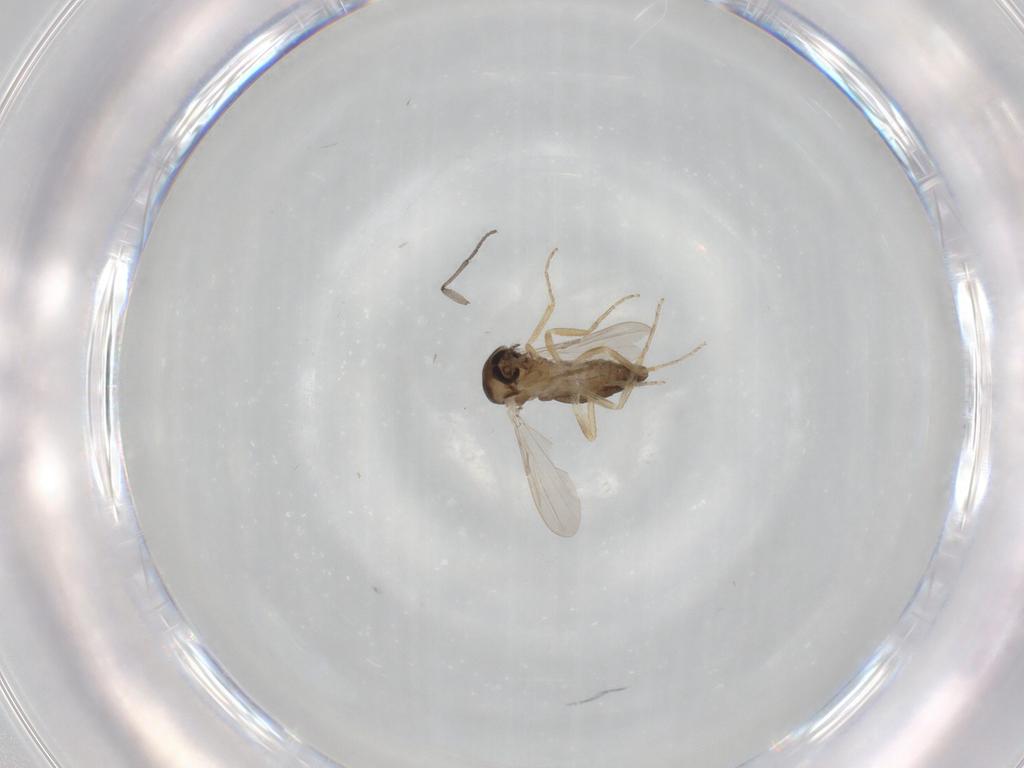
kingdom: Animalia
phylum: Arthropoda
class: Insecta
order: Diptera
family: Ceratopogonidae
